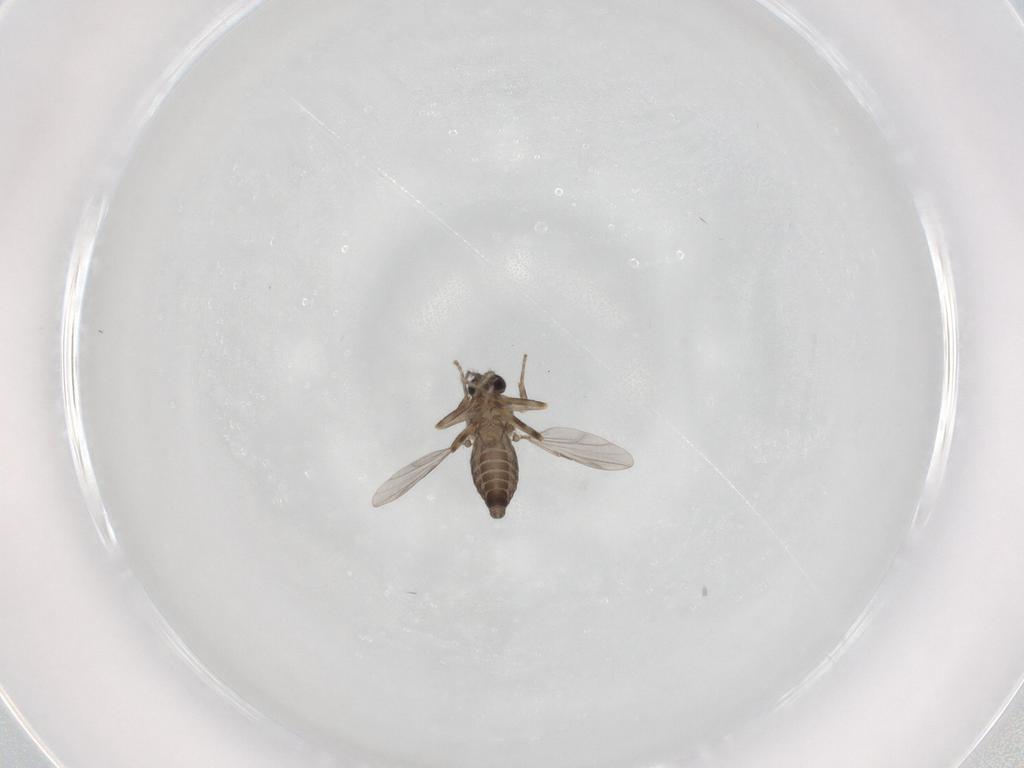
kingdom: Animalia
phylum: Arthropoda
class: Insecta
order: Diptera
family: Ceratopogonidae
